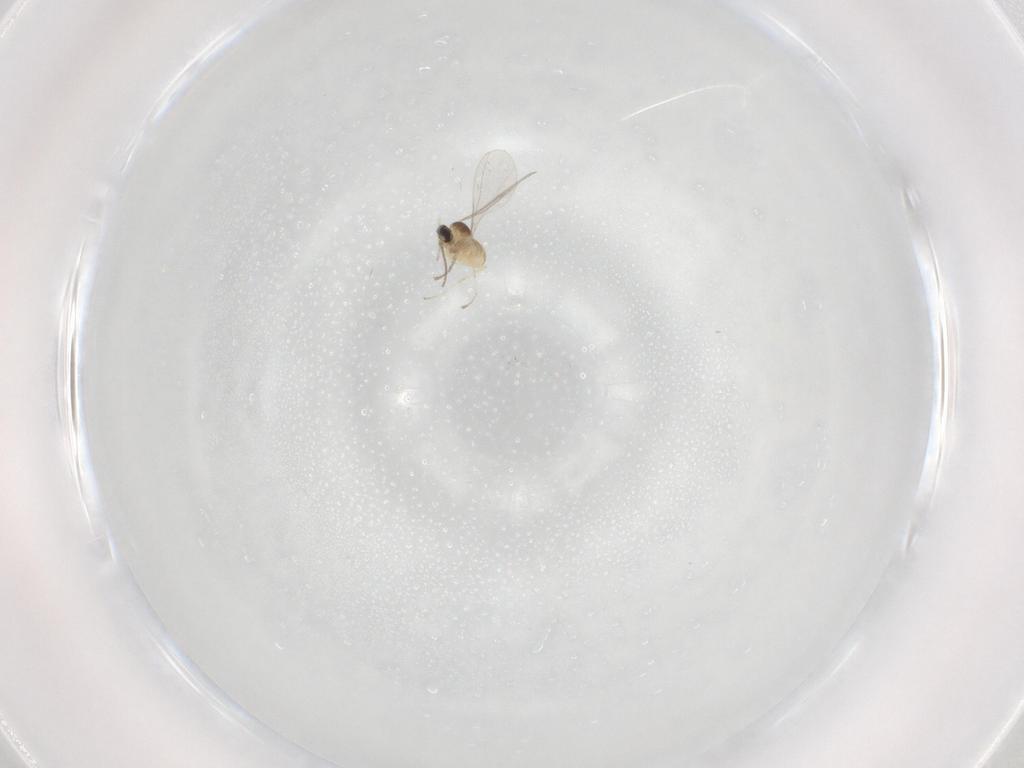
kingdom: Animalia
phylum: Arthropoda
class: Insecta
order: Diptera
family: Cecidomyiidae
